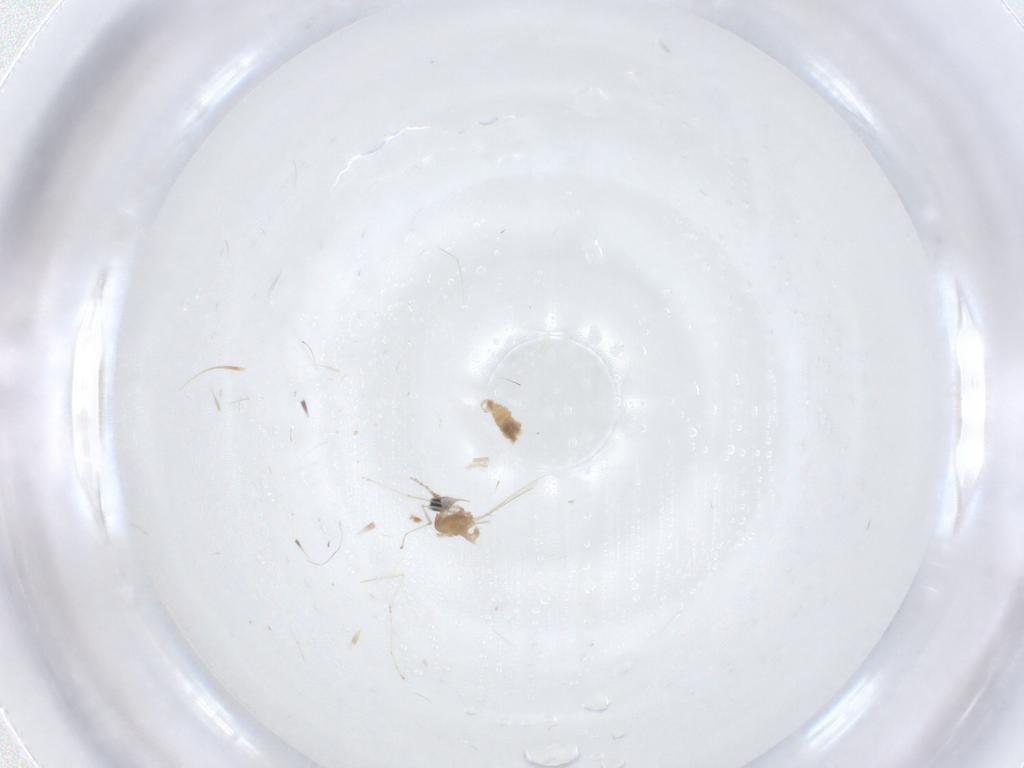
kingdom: Animalia
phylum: Arthropoda
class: Insecta
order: Diptera
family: Cecidomyiidae
